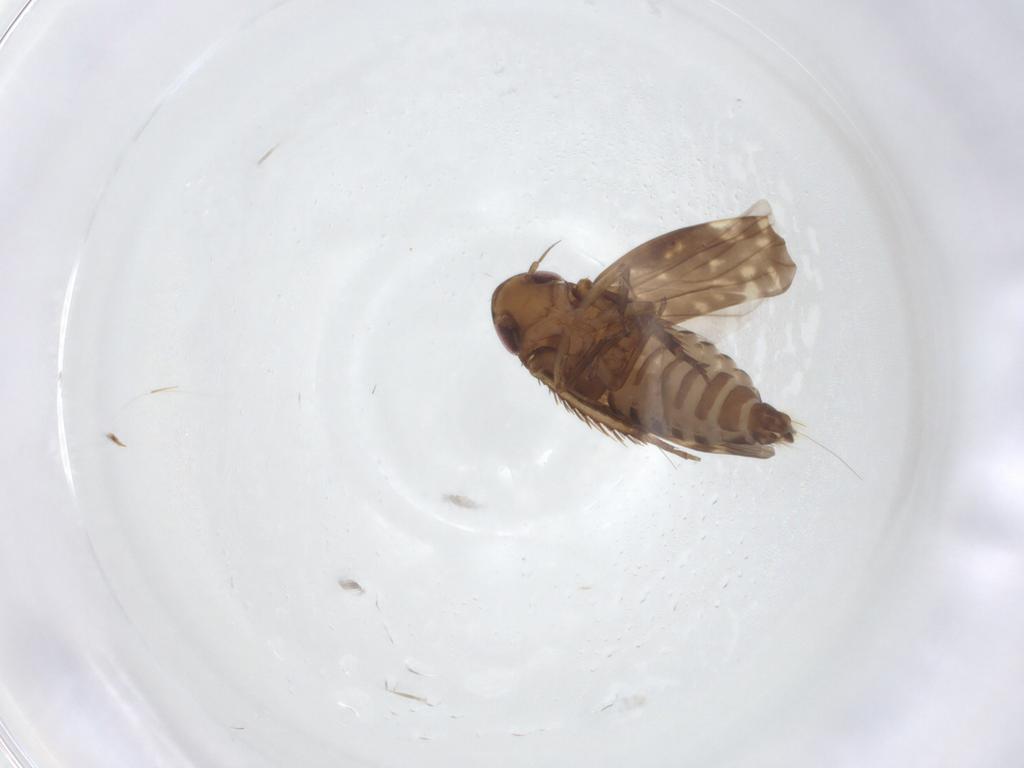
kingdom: Animalia
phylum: Arthropoda
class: Insecta
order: Hemiptera
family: Cicadellidae
